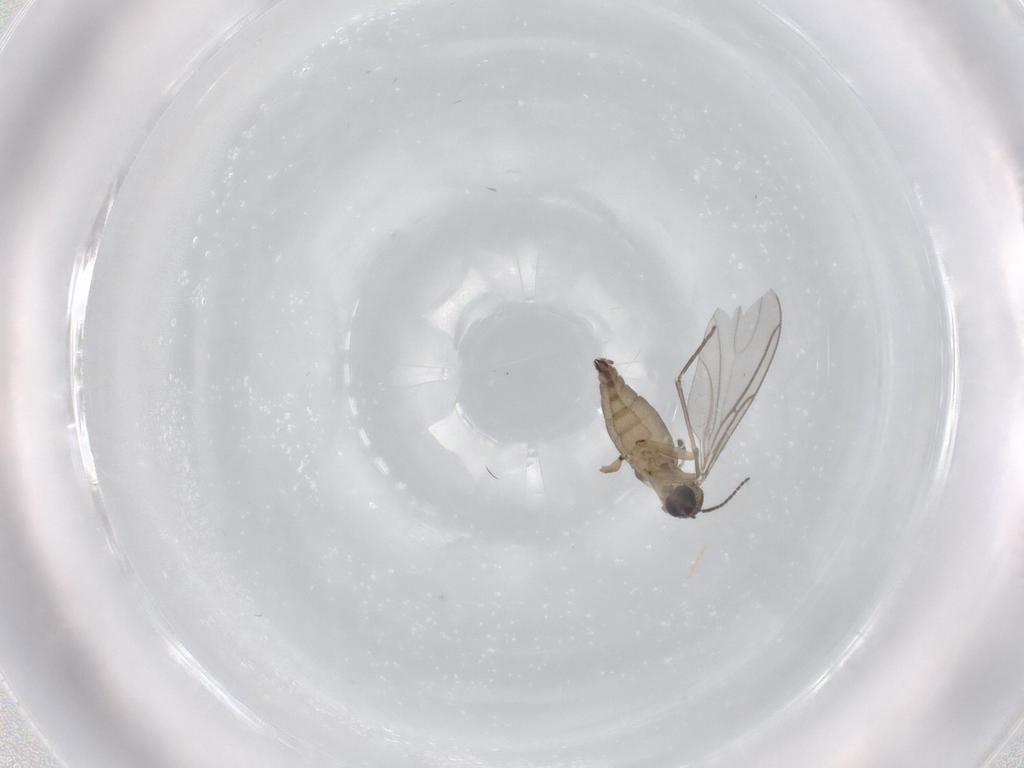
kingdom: Animalia
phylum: Arthropoda
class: Insecta
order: Diptera
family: Sciaridae
